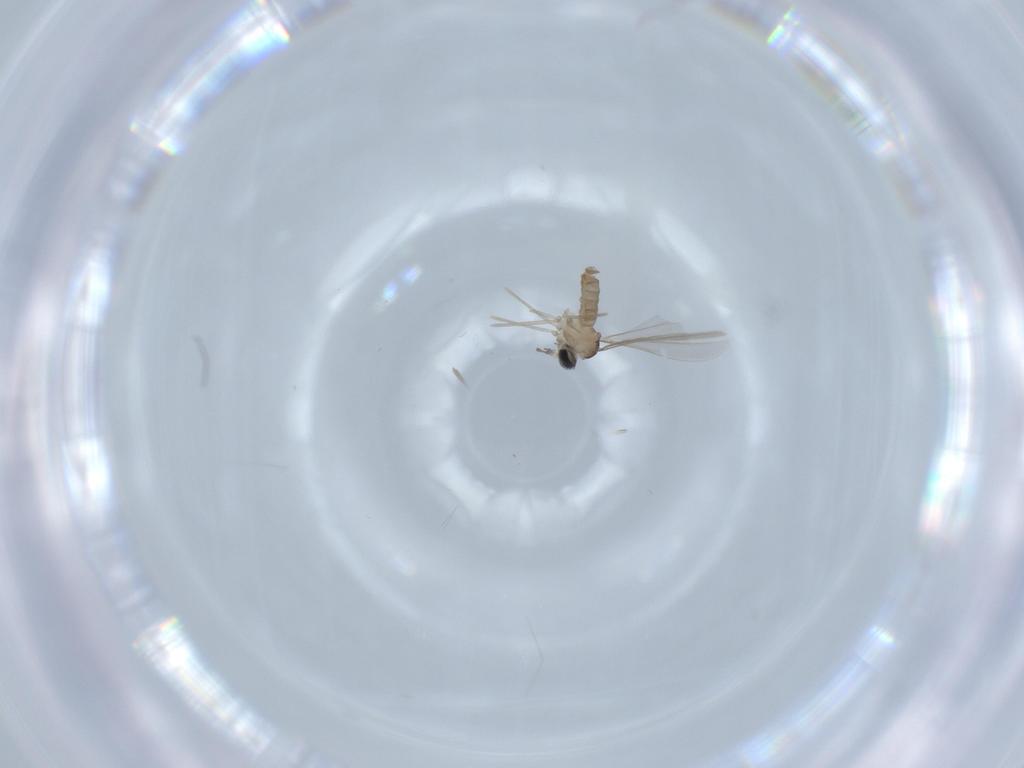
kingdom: Animalia
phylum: Arthropoda
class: Insecta
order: Diptera
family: Cecidomyiidae
